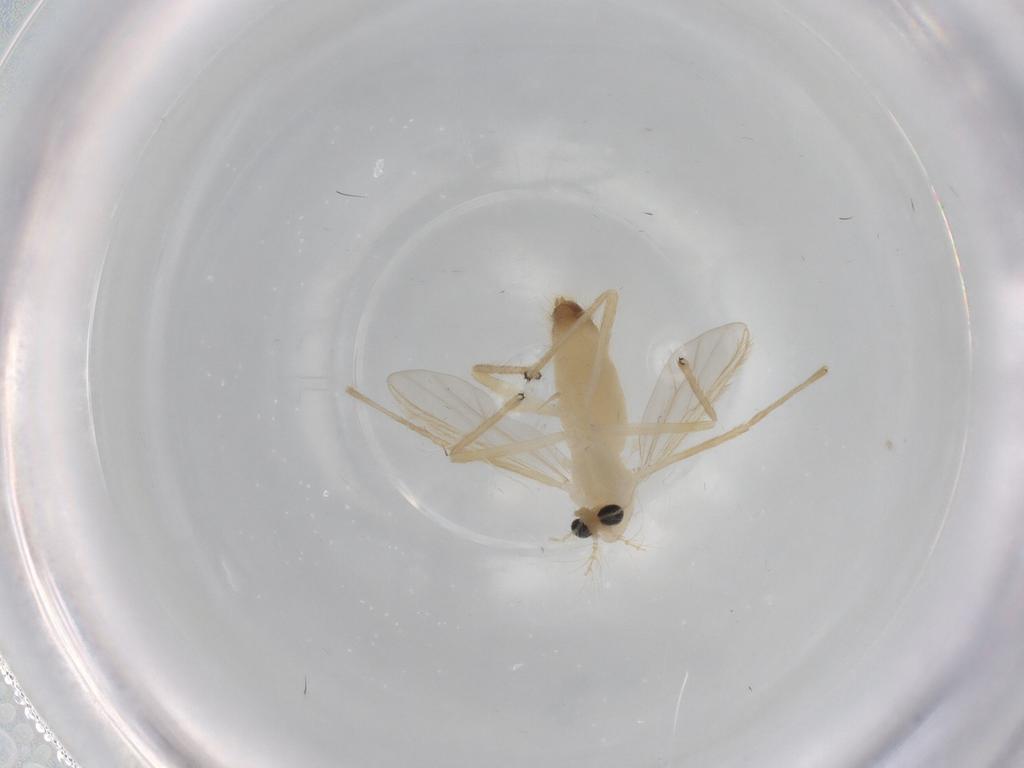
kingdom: Animalia
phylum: Arthropoda
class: Insecta
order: Diptera
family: Chironomidae
